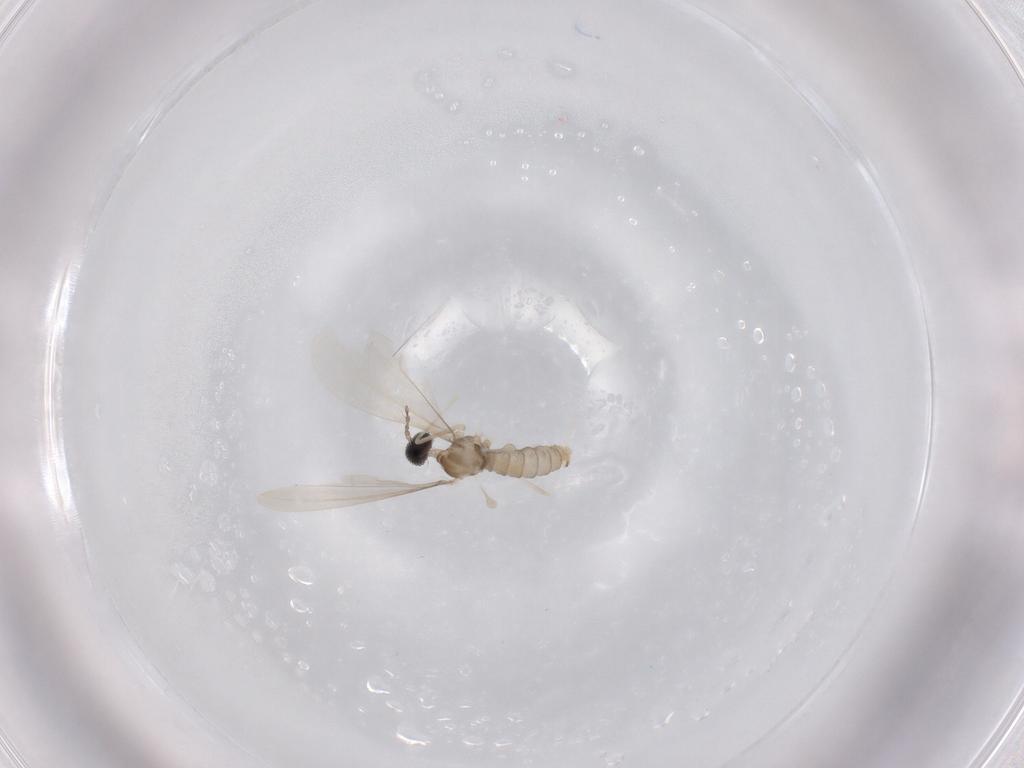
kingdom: Animalia
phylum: Arthropoda
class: Insecta
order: Diptera
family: Cecidomyiidae
